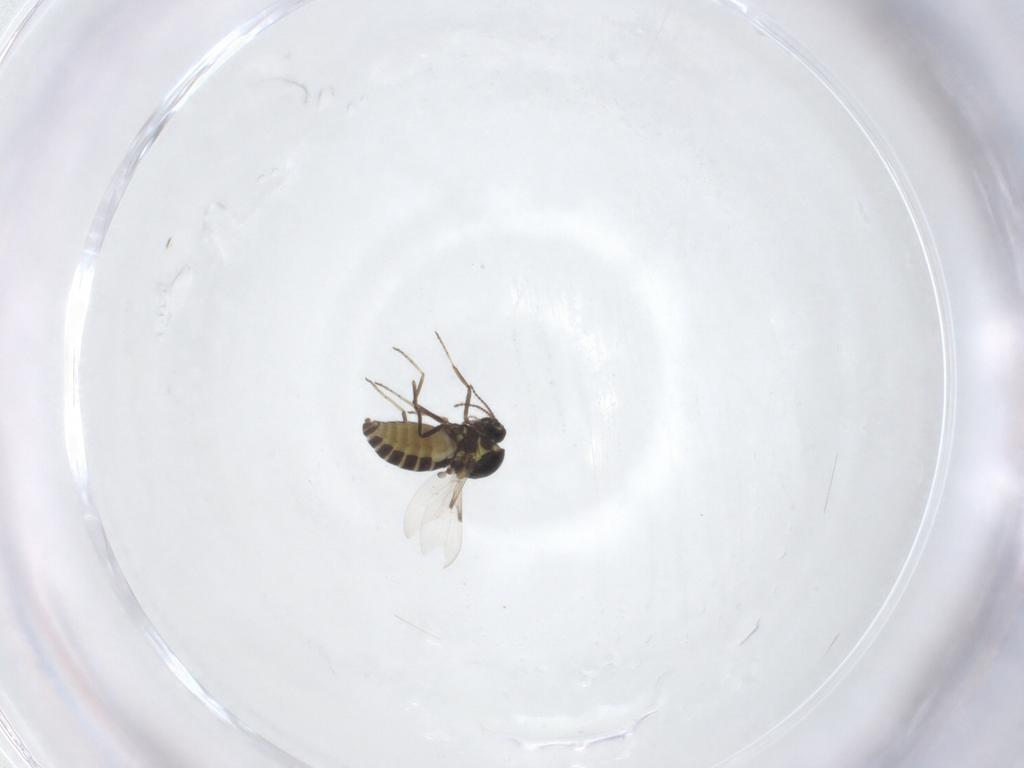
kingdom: Animalia
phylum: Arthropoda
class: Insecta
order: Diptera
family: Ceratopogonidae
